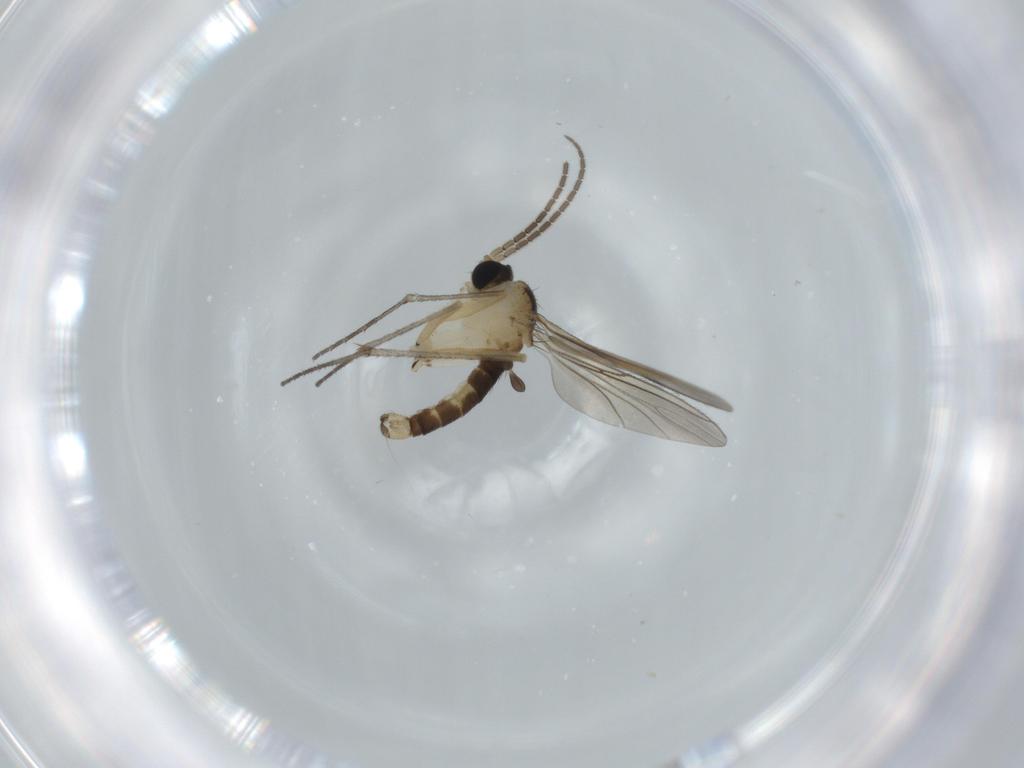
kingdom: Animalia
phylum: Arthropoda
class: Insecta
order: Diptera
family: Sciaridae
